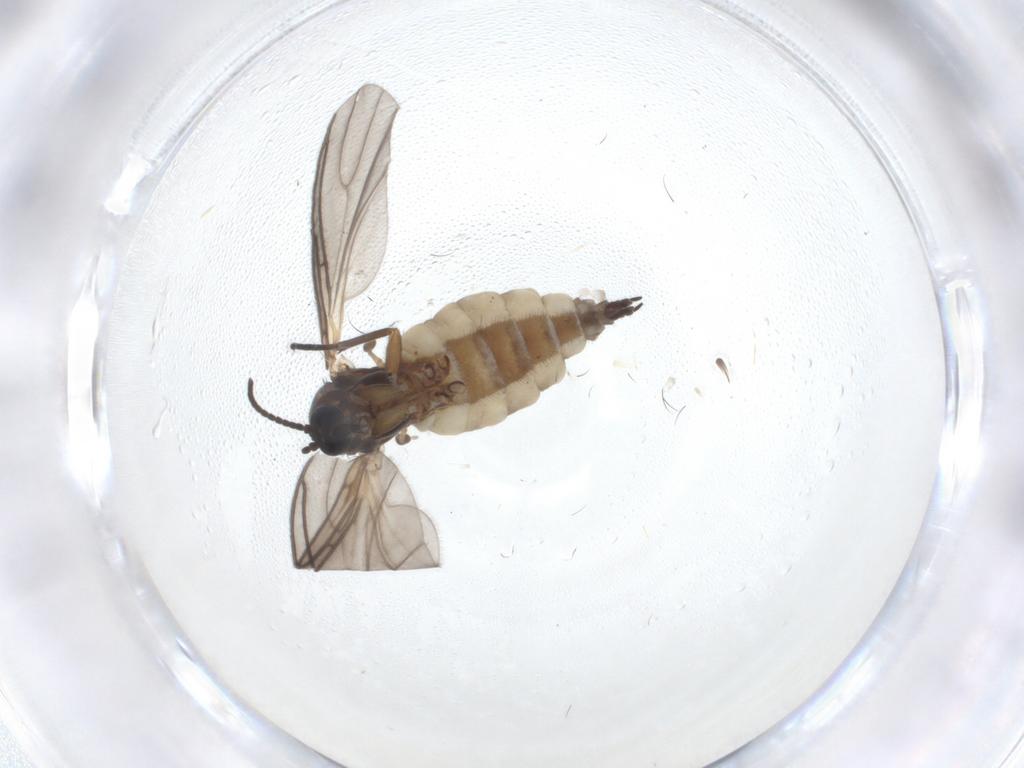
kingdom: Animalia
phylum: Arthropoda
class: Insecta
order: Diptera
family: Sciaridae
